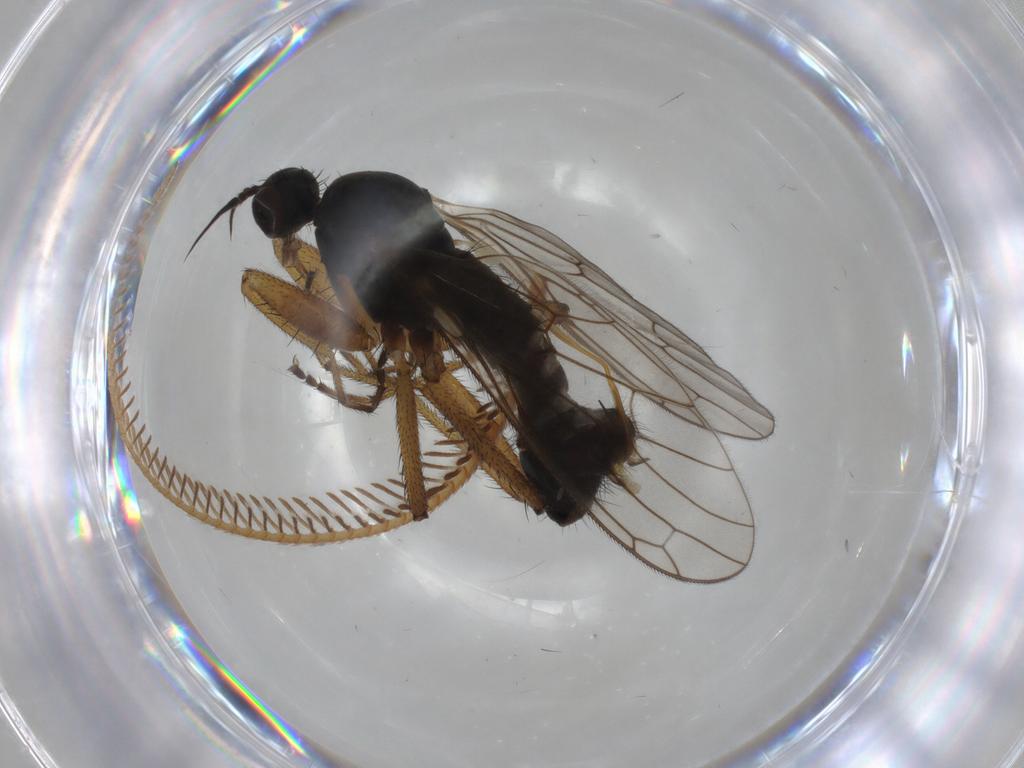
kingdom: Animalia
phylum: Arthropoda
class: Insecta
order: Diptera
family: Chironomidae
